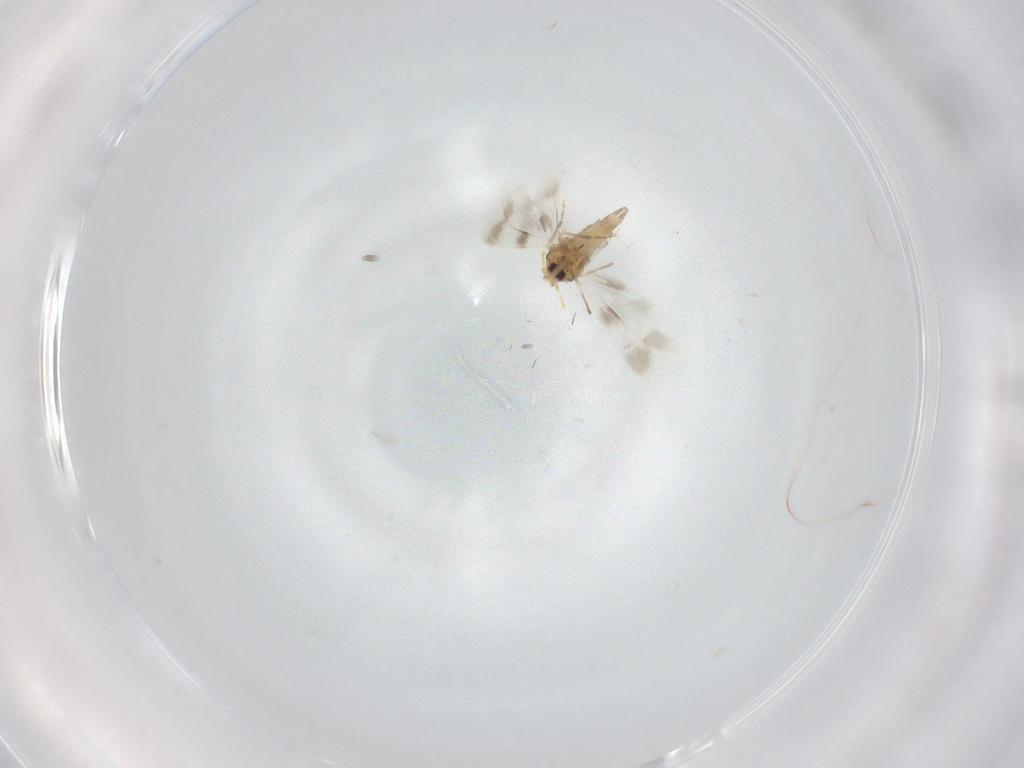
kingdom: Animalia
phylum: Arthropoda
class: Insecta
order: Hemiptera
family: Aleyrodidae
